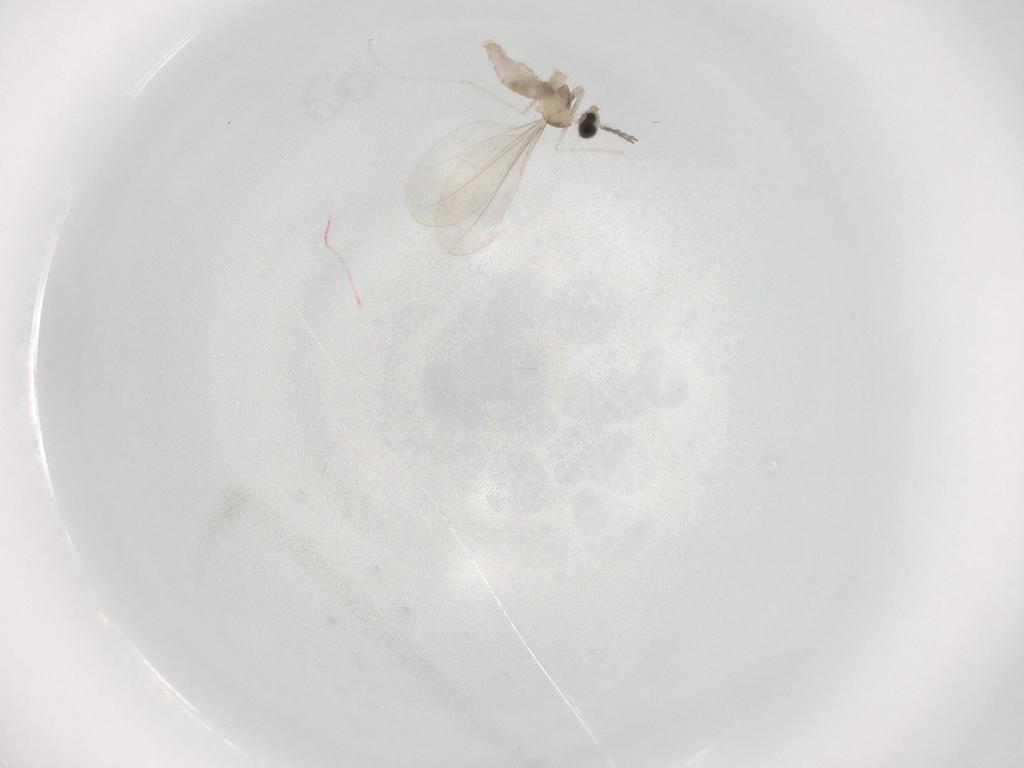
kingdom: Animalia
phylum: Arthropoda
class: Insecta
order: Diptera
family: Cecidomyiidae
